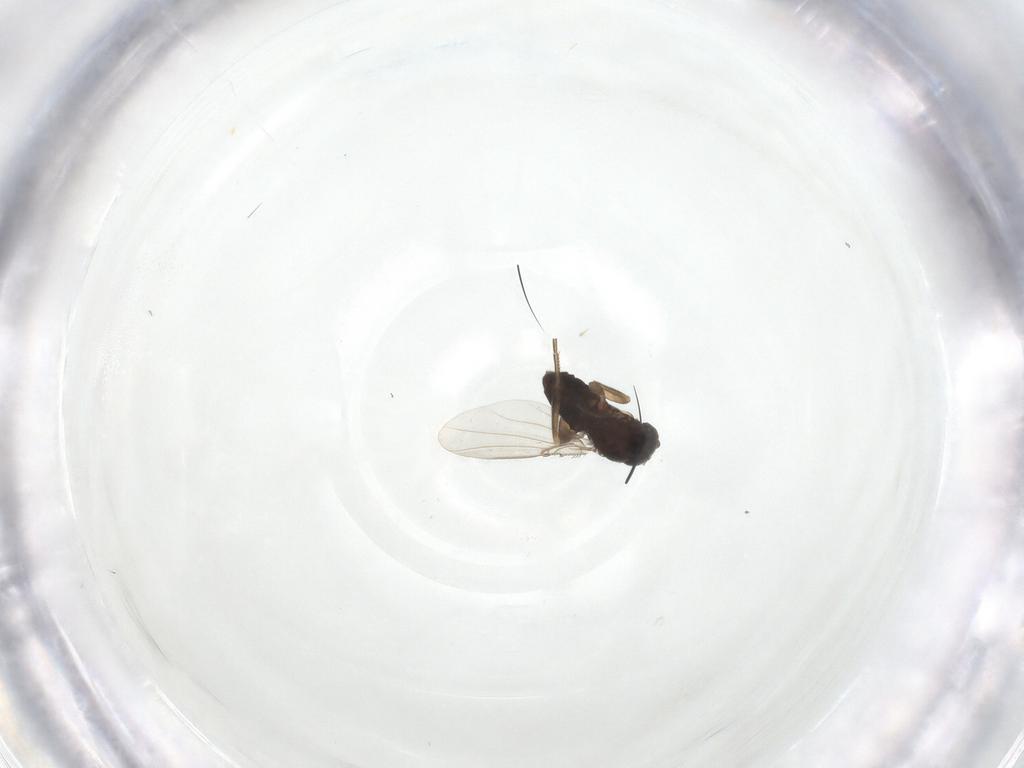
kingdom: Animalia
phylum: Arthropoda
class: Insecta
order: Diptera
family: Phoridae
